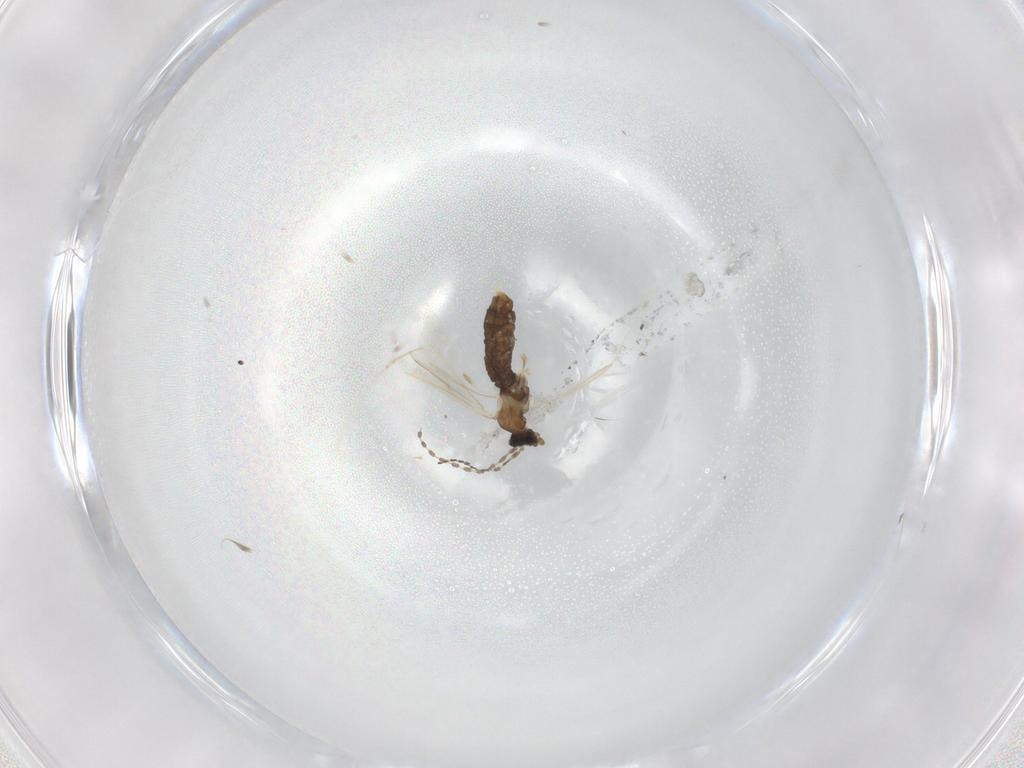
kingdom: Animalia
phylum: Arthropoda
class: Insecta
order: Diptera
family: Cecidomyiidae
